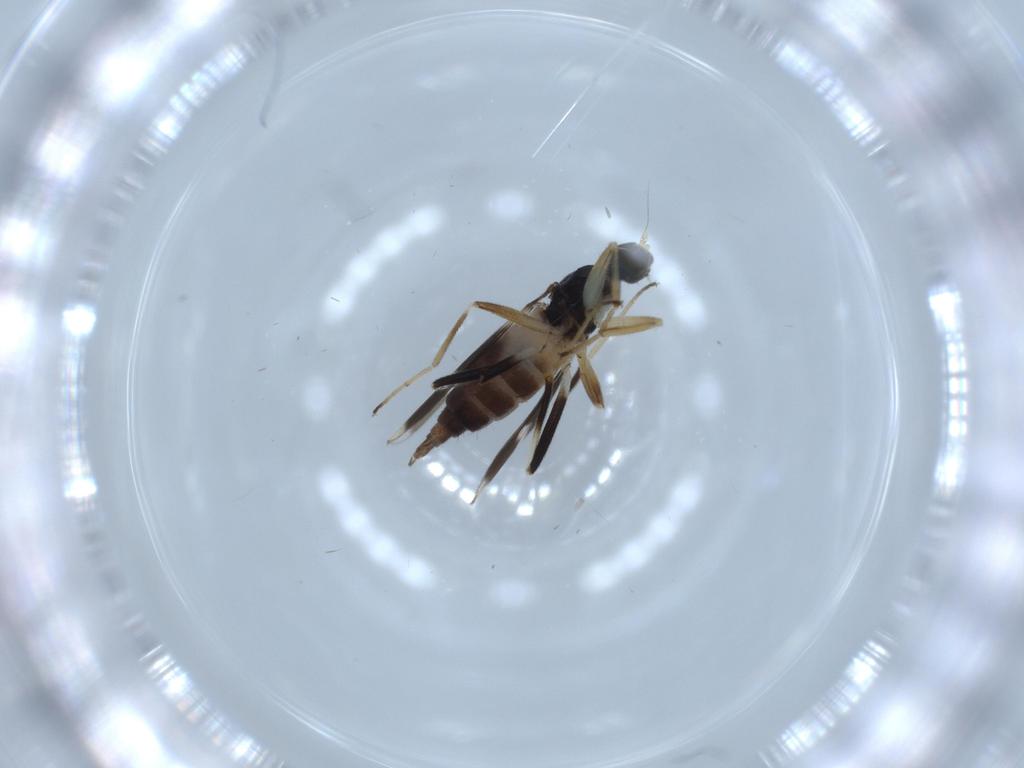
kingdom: Animalia
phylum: Arthropoda
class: Insecta
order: Diptera
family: Hybotidae
